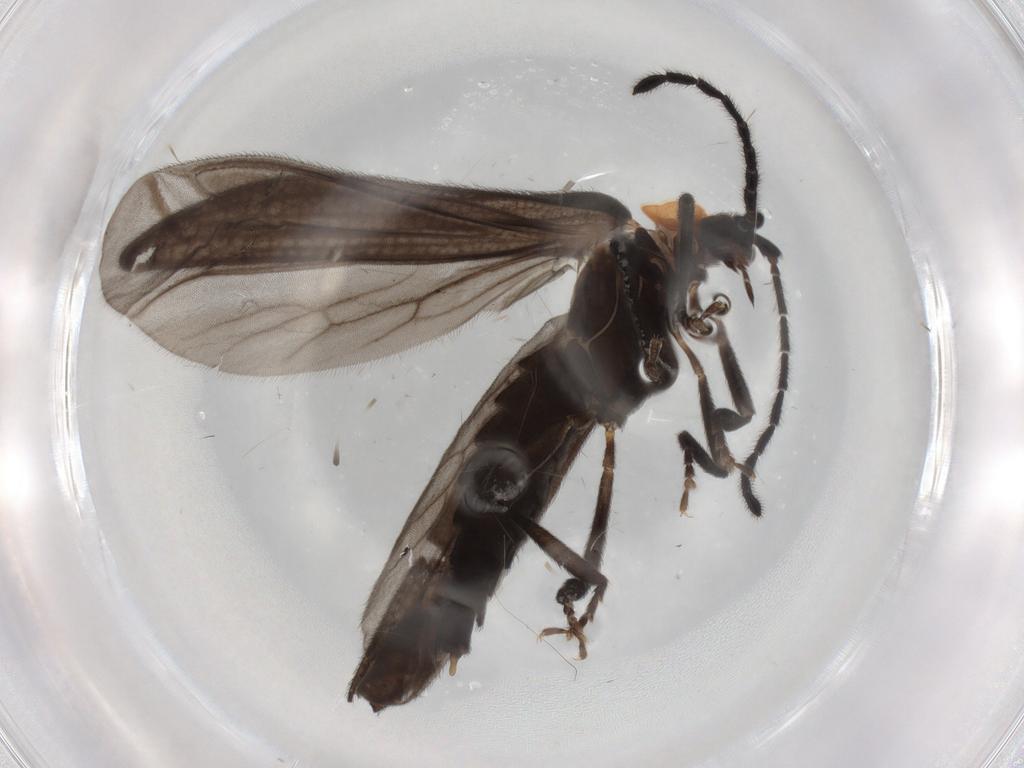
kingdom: Animalia
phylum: Arthropoda
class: Insecta
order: Coleoptera
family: Lycidae
